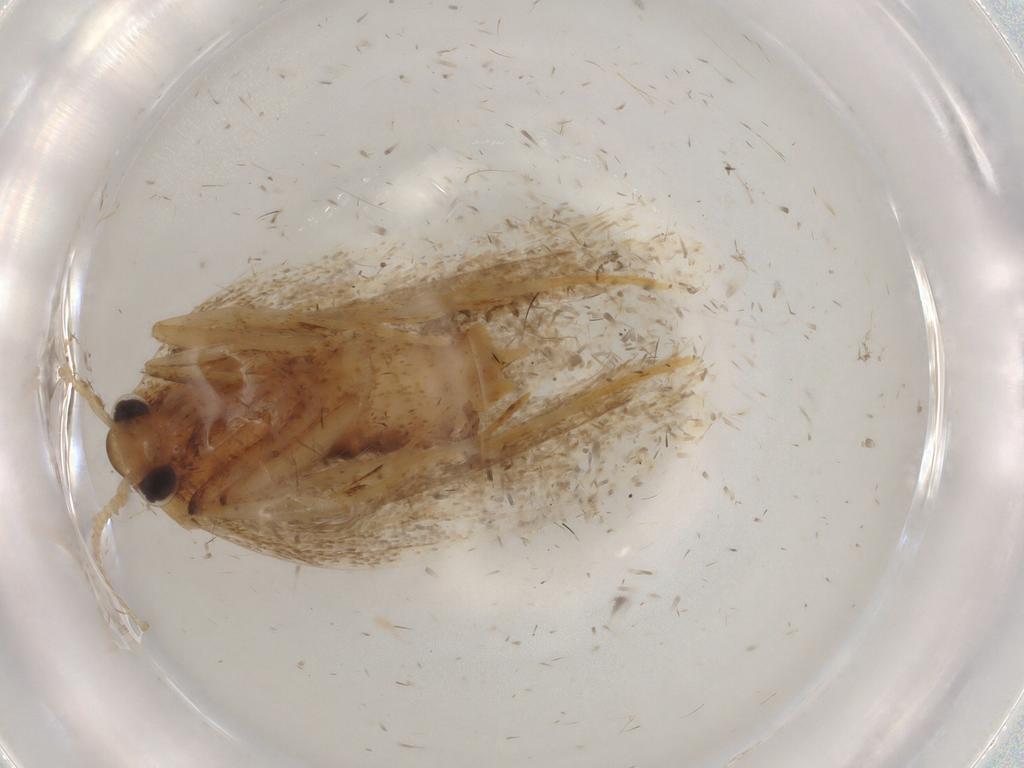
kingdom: Animalia
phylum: Arthropoda
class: Insecta
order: Lepidoptera
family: Lecithoceridae
